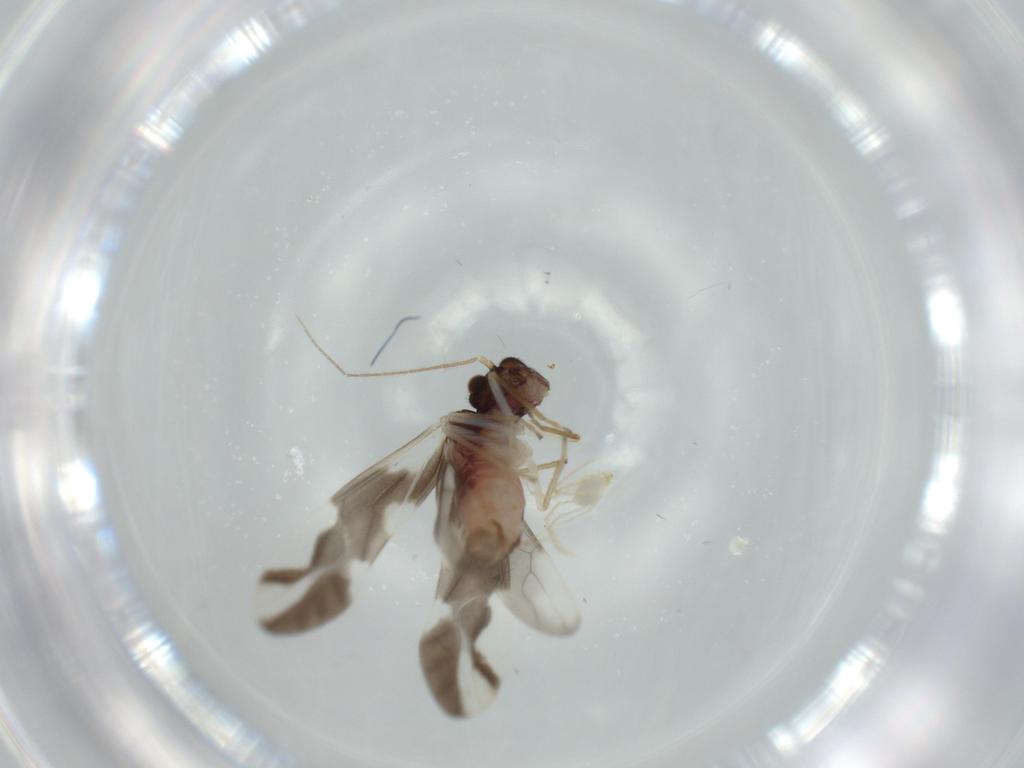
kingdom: Animalia
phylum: Arthropoda
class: Insecta
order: Psocodea
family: Caeciliusidae
